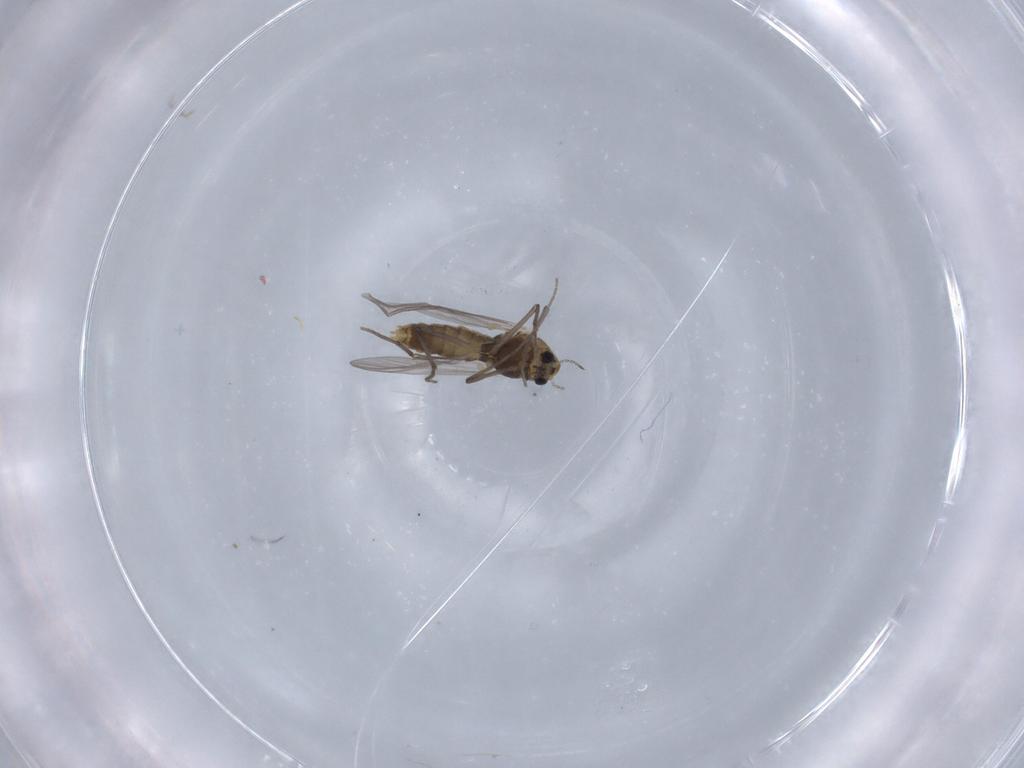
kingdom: Animalia
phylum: Arthropoda
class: Insecta
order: Diptera
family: Chironomidae
